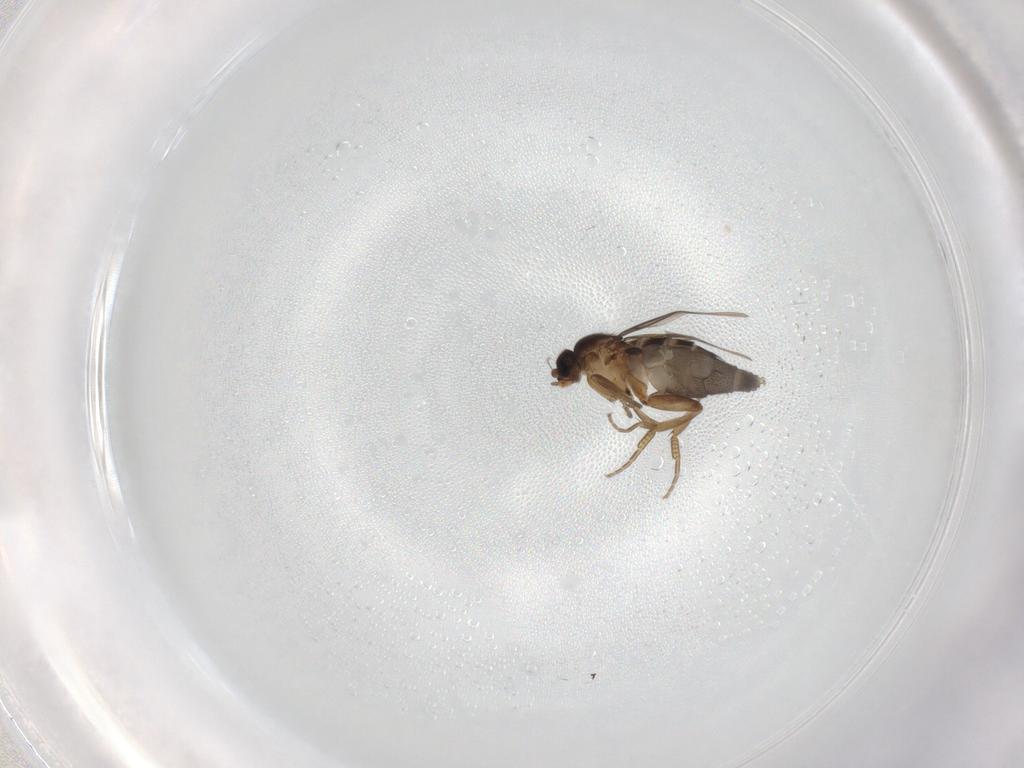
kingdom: Animalia
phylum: Arthropoda
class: Insecta
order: Diptera
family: Phoridae
